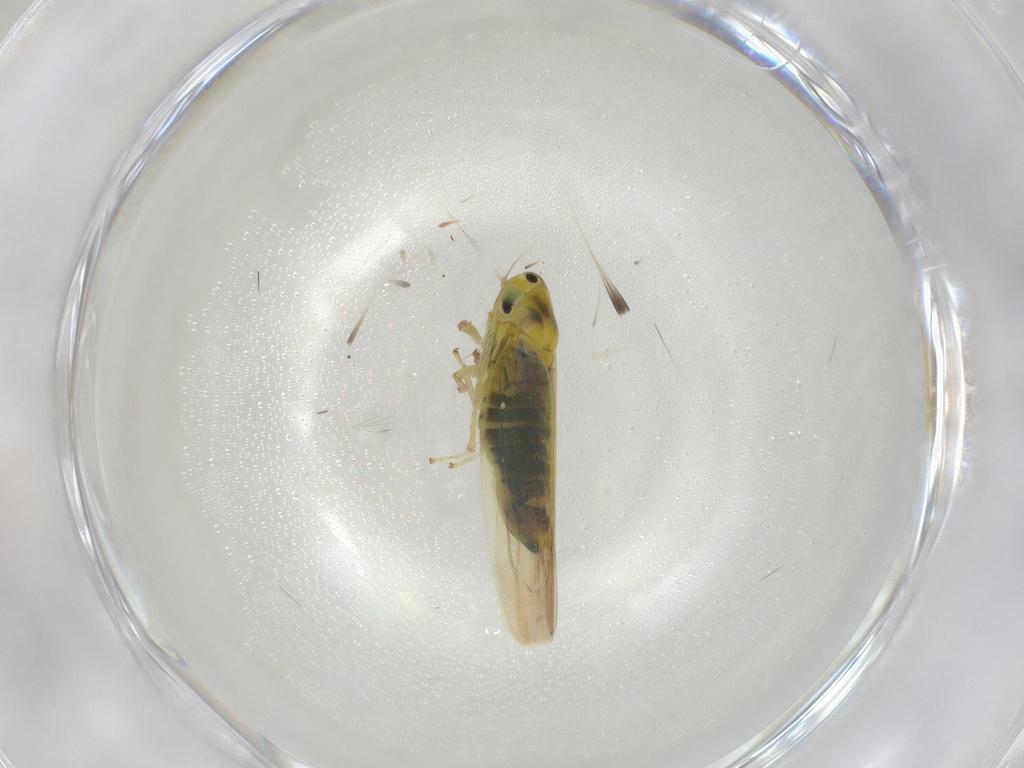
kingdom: Animalia
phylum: Arthropoda
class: Insecta
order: Hemiptera
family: Cicadellidae
